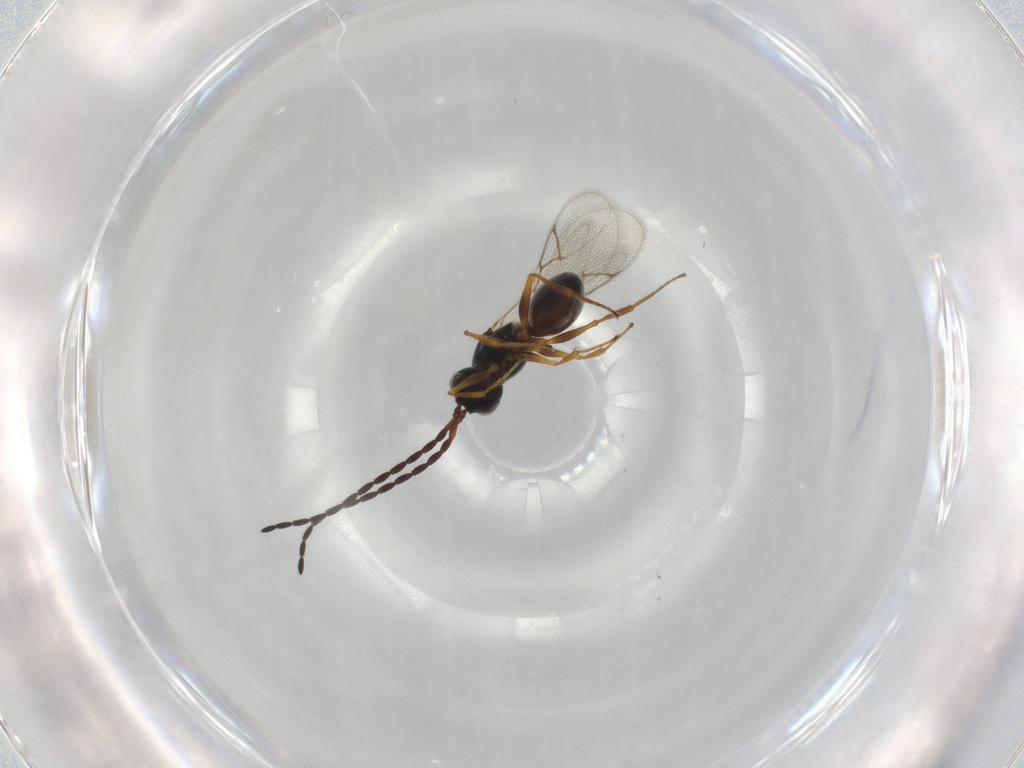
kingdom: Animalia
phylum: Arthropoda
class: Insecta
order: Hymenoptera
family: Figitidae
